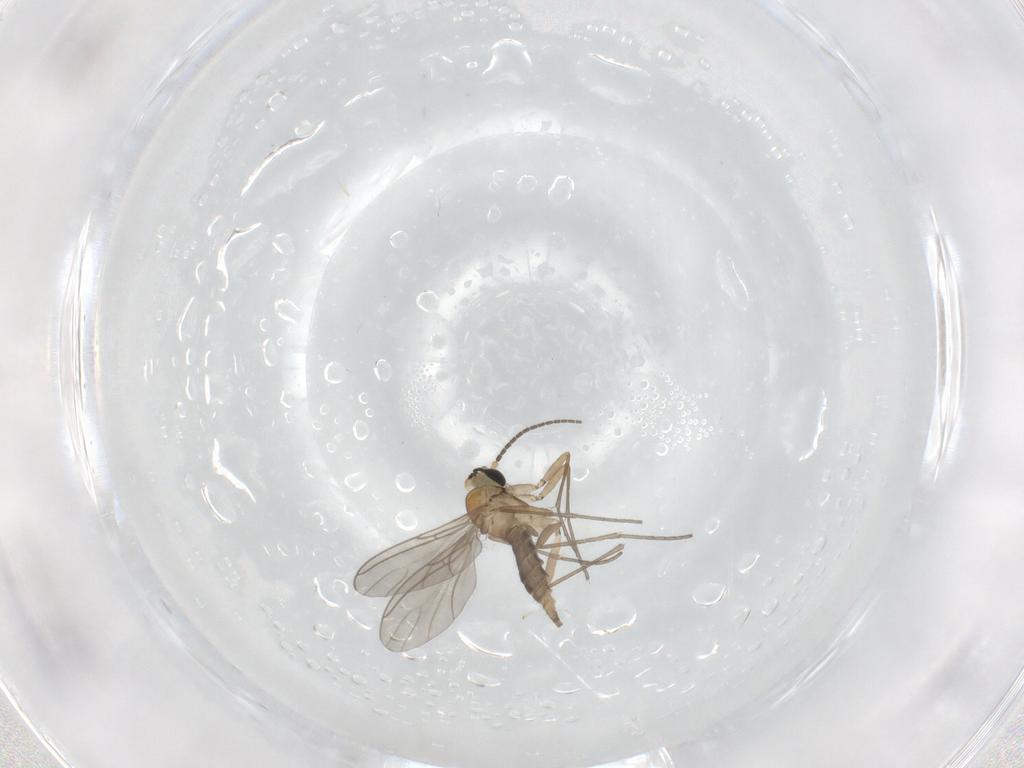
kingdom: Animalia
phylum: Arthropoda
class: Insecta
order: Diptera
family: Sciaridae
